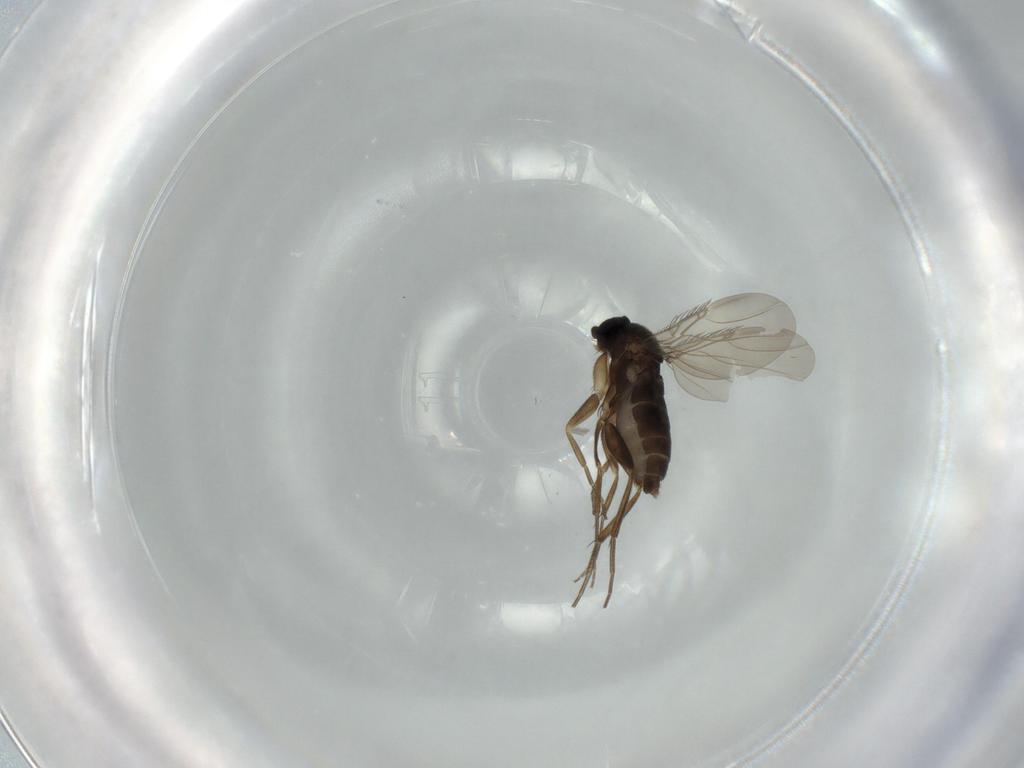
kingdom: Animalia
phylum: Arthropoda
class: Insecta
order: Diptera
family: Phoridae
